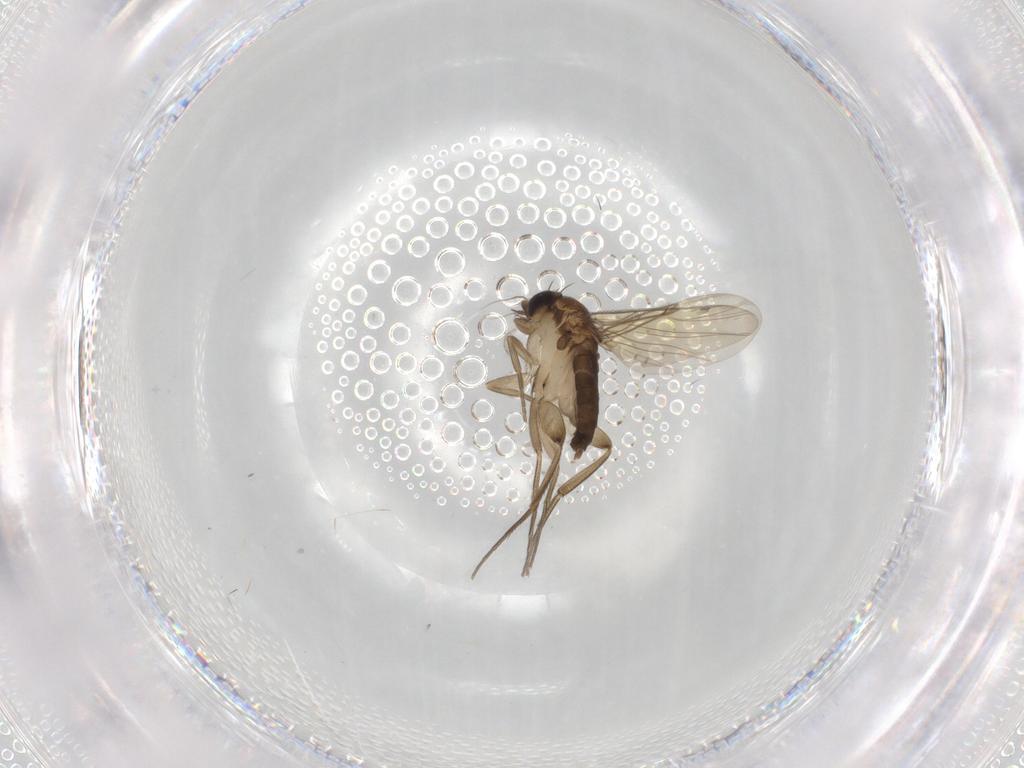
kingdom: Animalia
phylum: Arthropoda
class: Insecta
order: Diptera
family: Phoridae
